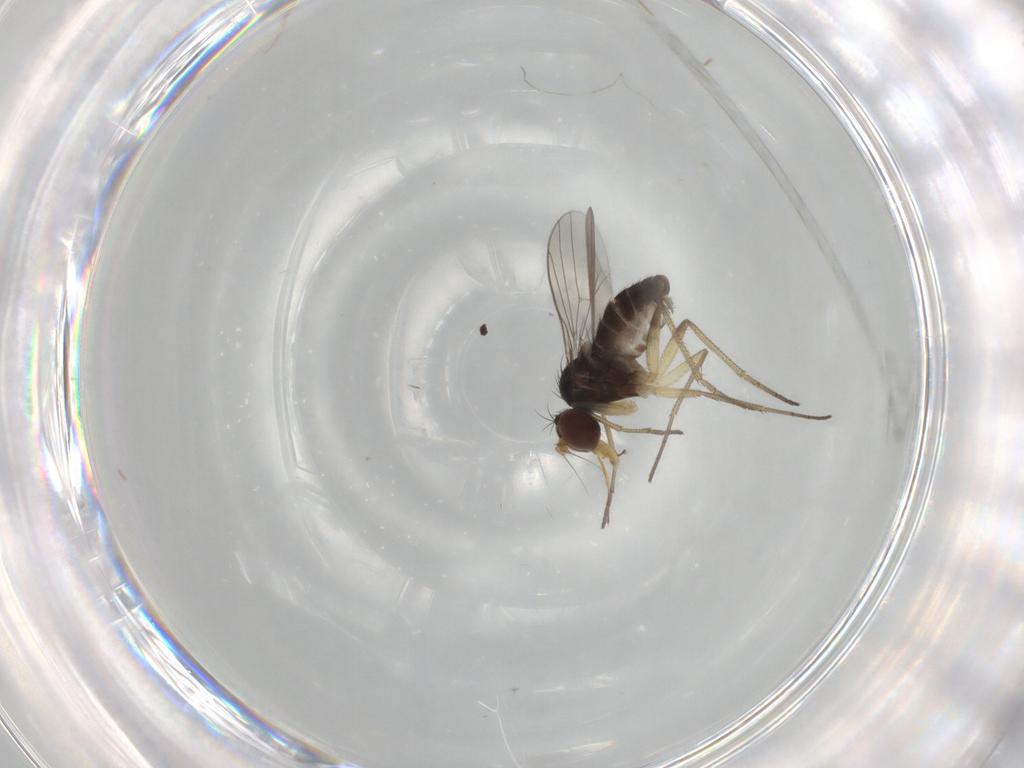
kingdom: Animalia
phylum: Arthropoda
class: Insecta
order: Diptera
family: Dolichopodidae
